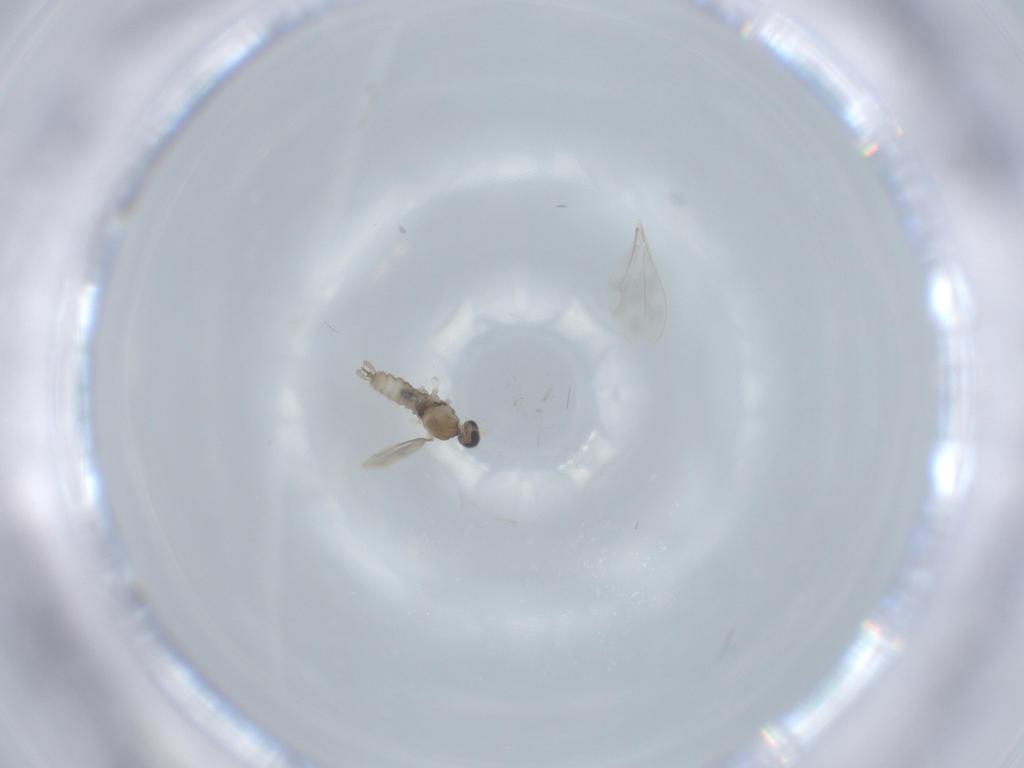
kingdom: Animalia
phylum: Arthropoda
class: Insecta
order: Diptera
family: Cecidomyiidae
